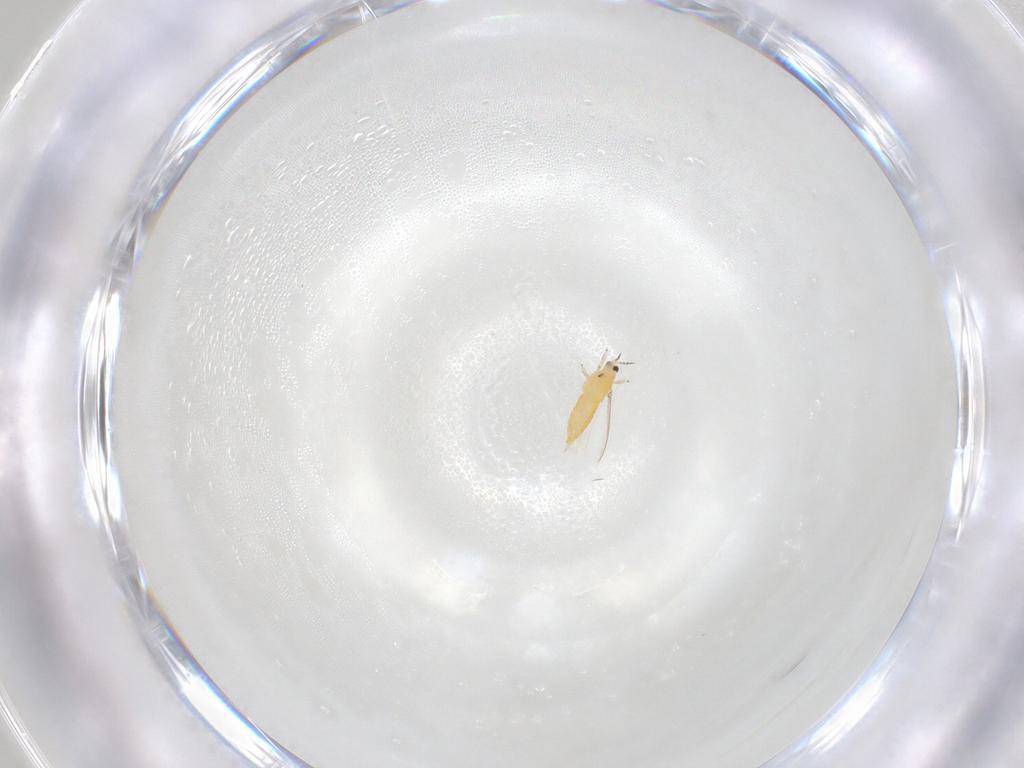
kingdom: Animalia
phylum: Arthropoda
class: Insecta
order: Thysanoptera
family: Thripidae
